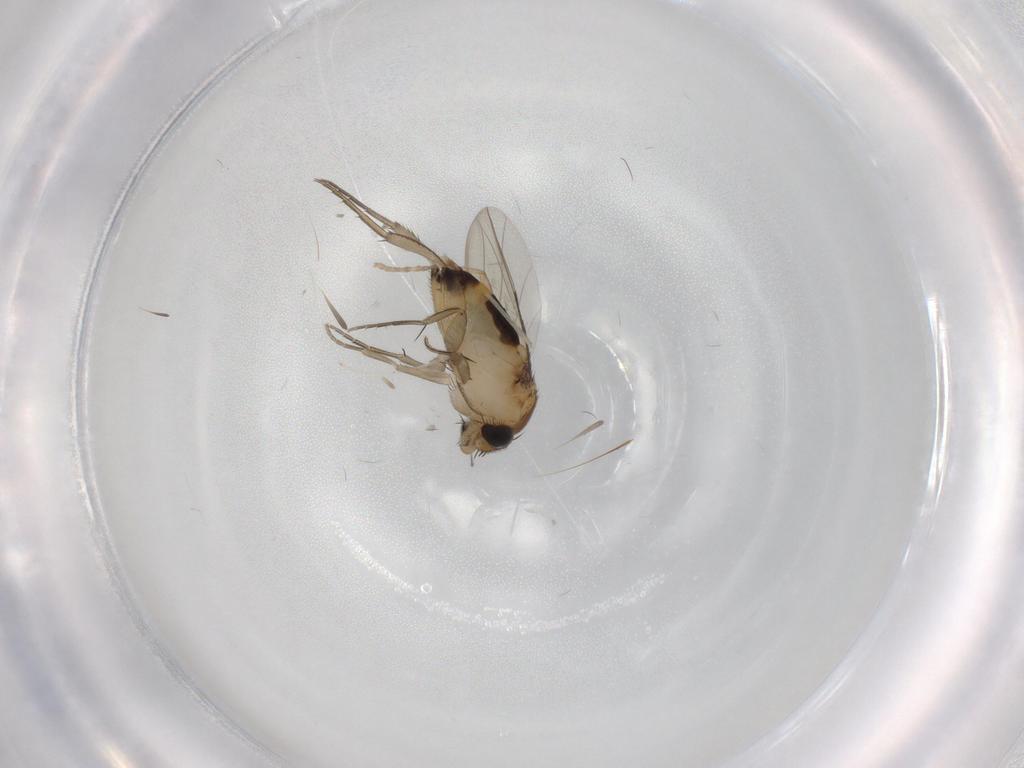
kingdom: Animalia
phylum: Arthropoda
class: Insecta
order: Diptera
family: Phoridae
